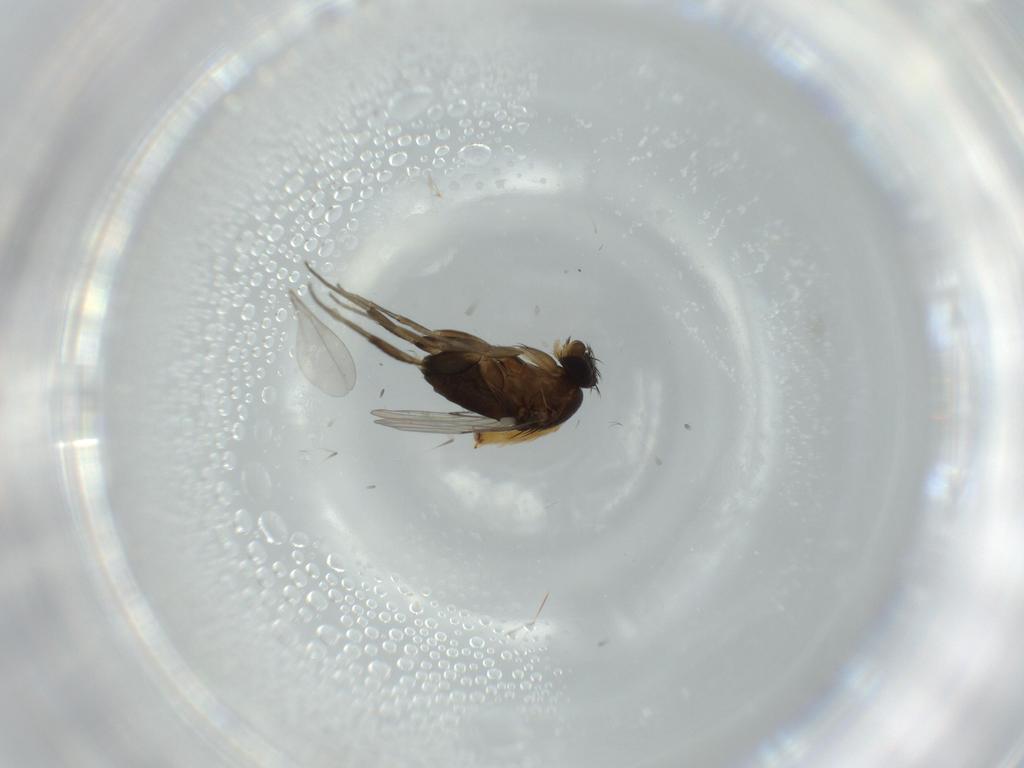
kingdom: Animalia
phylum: Arthropoda
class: Insecta
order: Diptera
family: Phoridae
